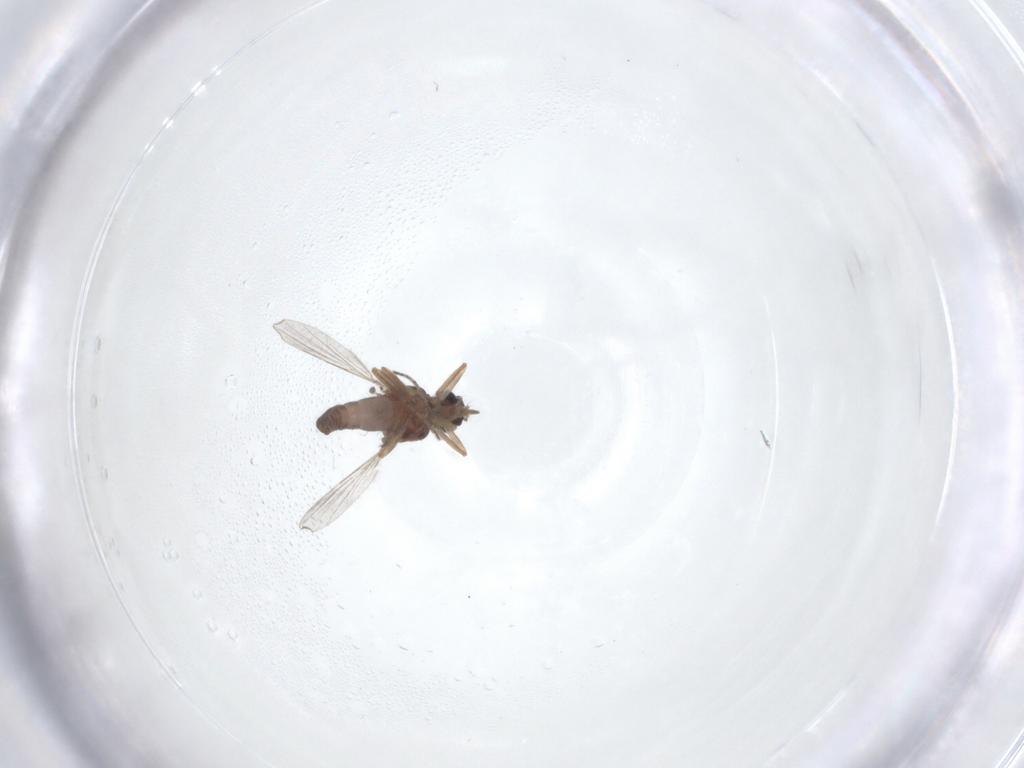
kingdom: Animalia
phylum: Arthropoda
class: Insecta
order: Diptera
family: Ceratopogonidae
